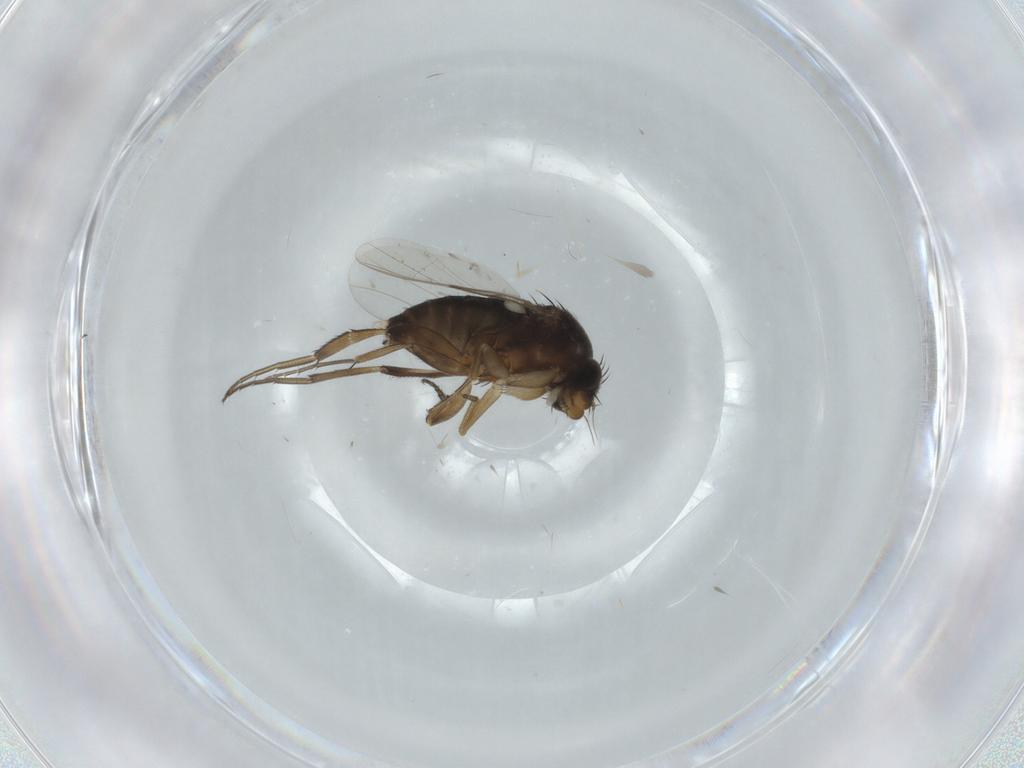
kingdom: Animalia
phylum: Arthropoda
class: Insecta
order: Diptera
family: Phoridae
